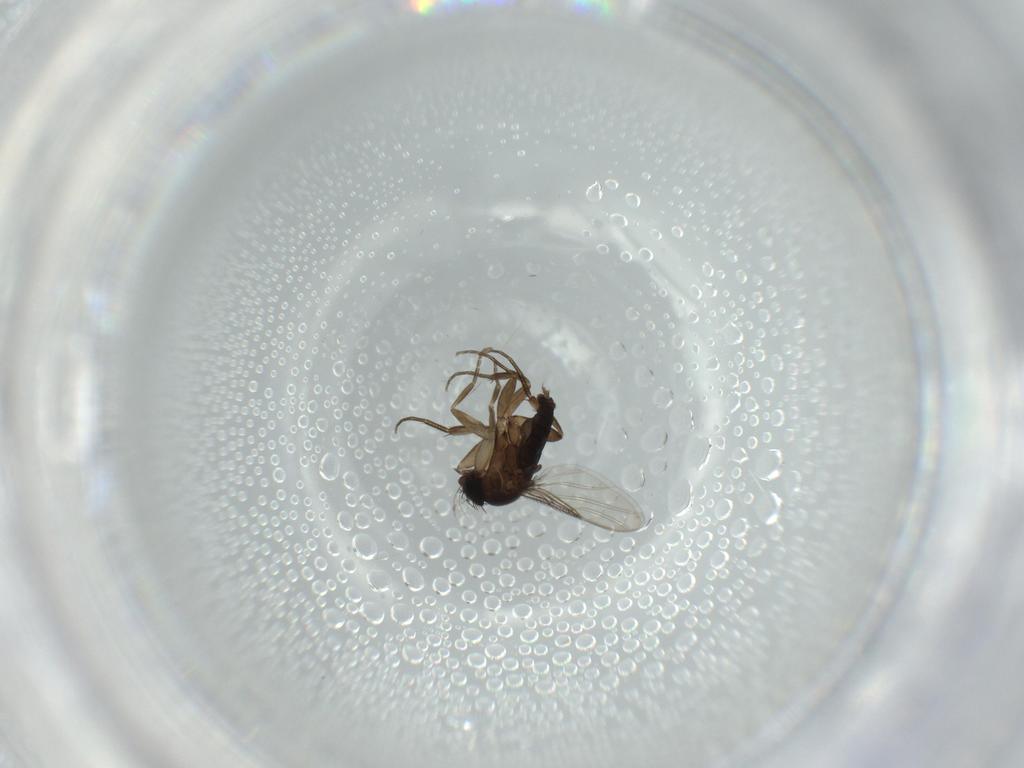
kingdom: Animalia
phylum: Arthropoda
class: Insecta
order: Diptera
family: Phoridae
